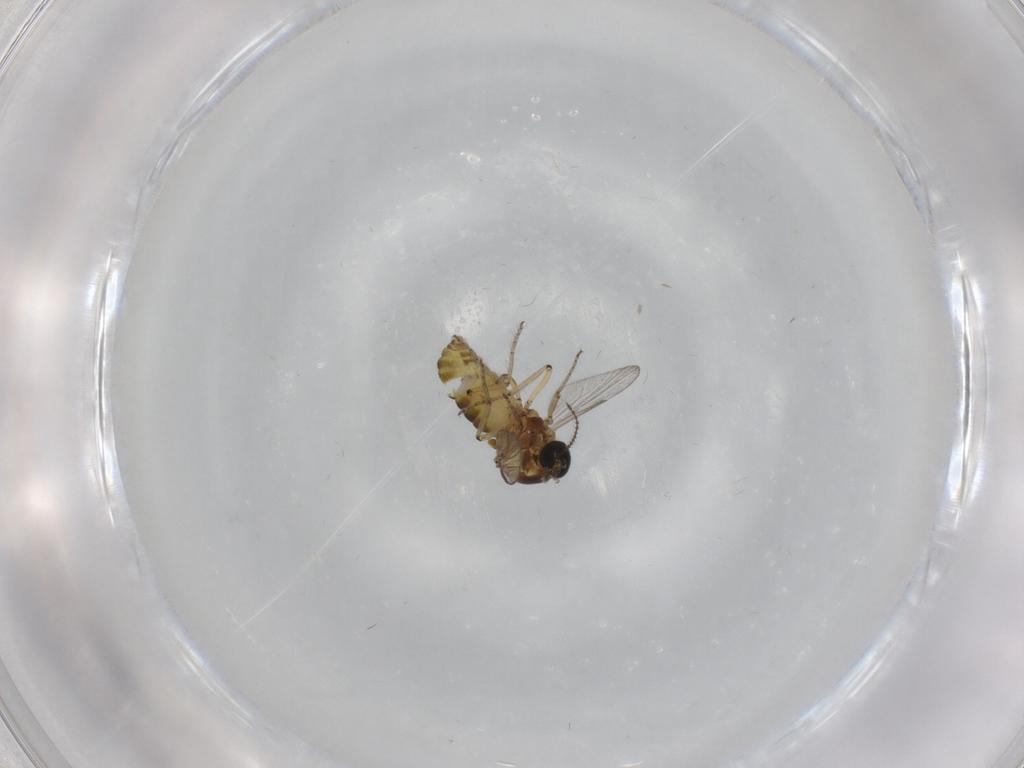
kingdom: Animalia
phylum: Arthropoda
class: Insecta
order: Diptera
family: Ceratopogonidae
